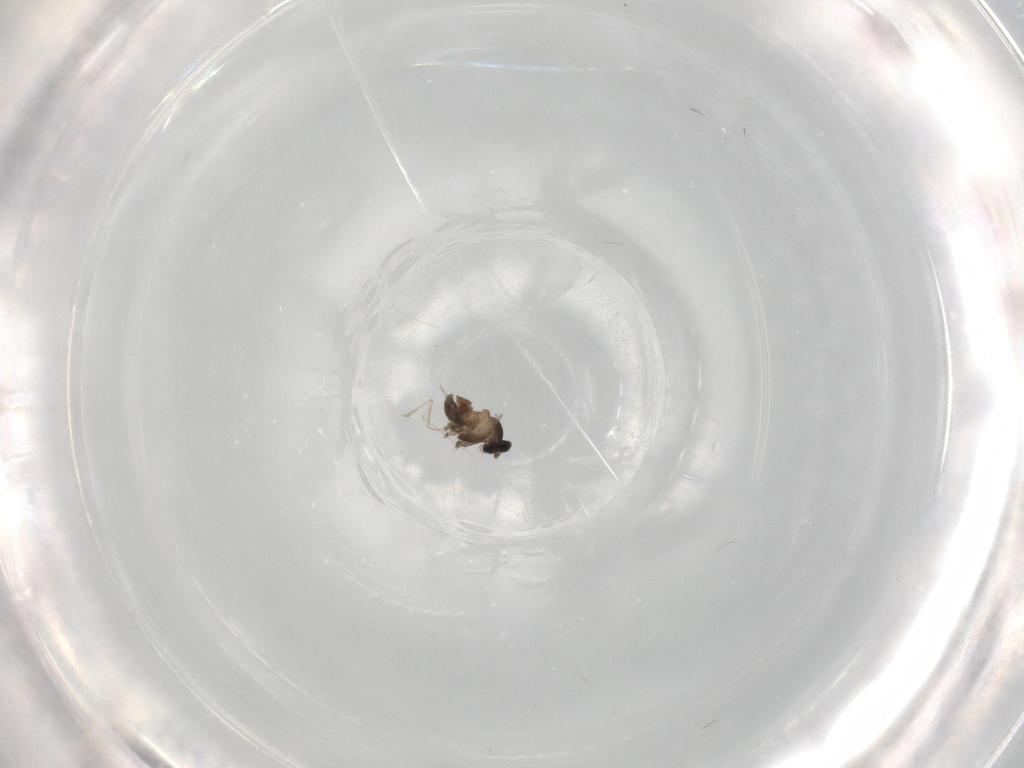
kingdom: Animalia
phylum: Arthropoda
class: Insecta
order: Diptera
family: Cecidomyiidae
